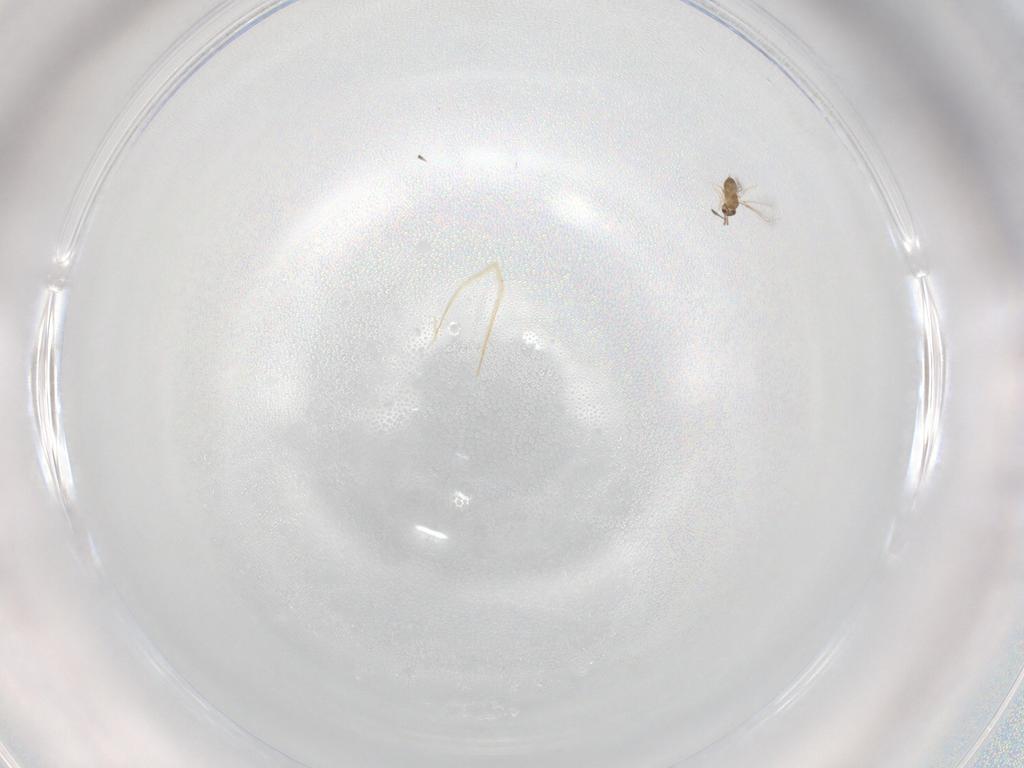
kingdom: Animalia
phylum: Arthropoda
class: Insecta
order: Hymenoptera
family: Mymaridae
